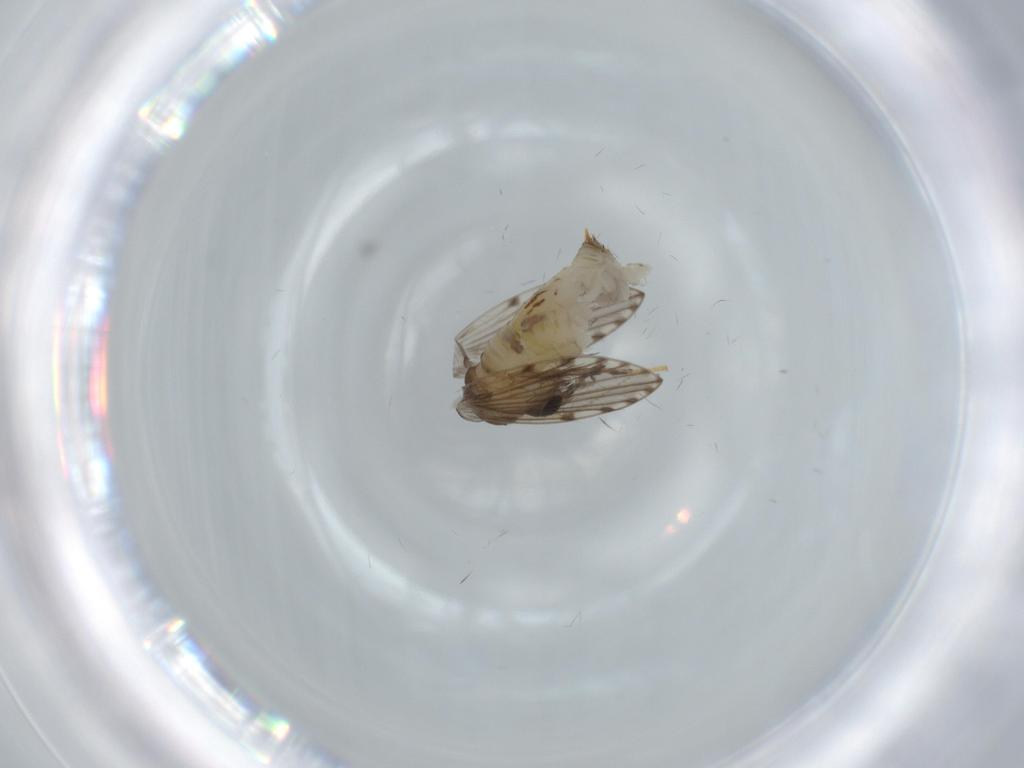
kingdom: Animalia
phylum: Arthropoda
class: Insecta
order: Diptera
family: Psychodidae
